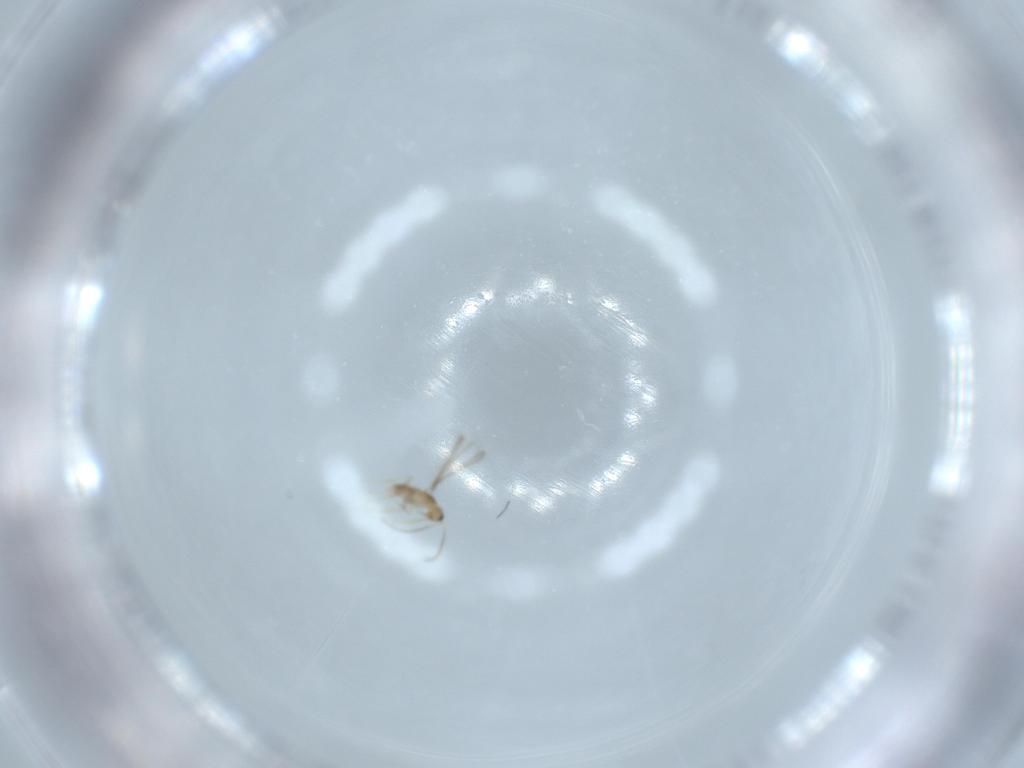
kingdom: Animalia
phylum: Arthropoda
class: Insecta
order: Hymenoptera
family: Mymaridae
